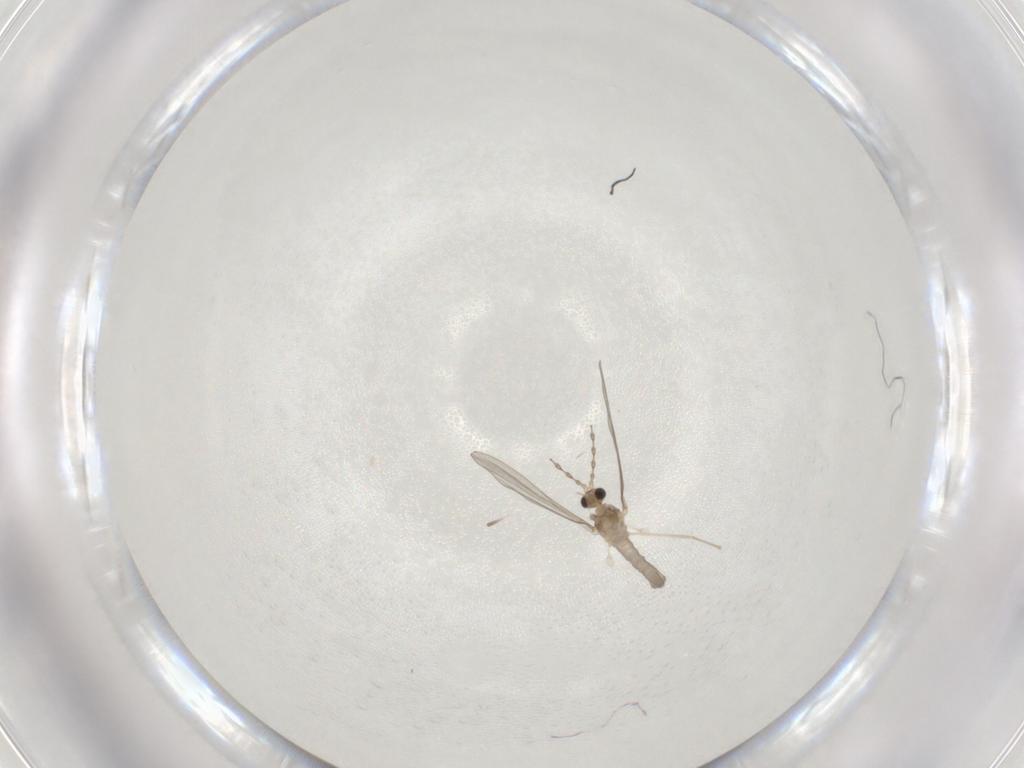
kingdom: Animalia
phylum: Arthropoda
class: Insecta
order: Diptera
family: Cecidomyiidae
